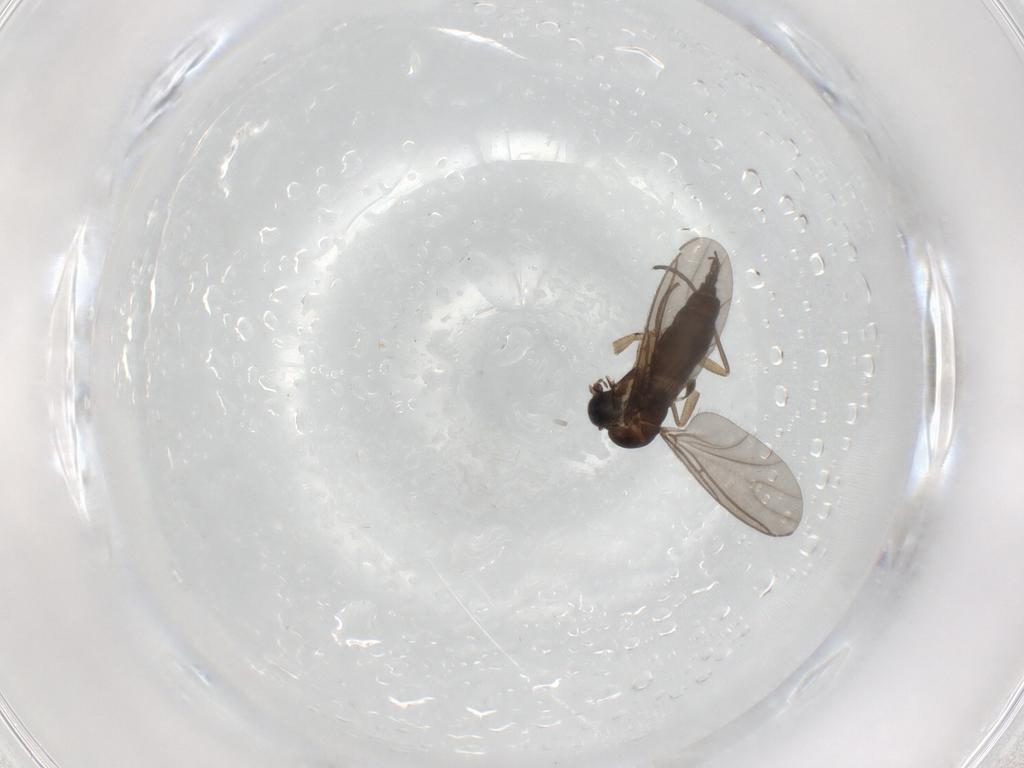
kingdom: Animalia
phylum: Arthropoda
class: Insecta
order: Diptera
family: Sciaridae
